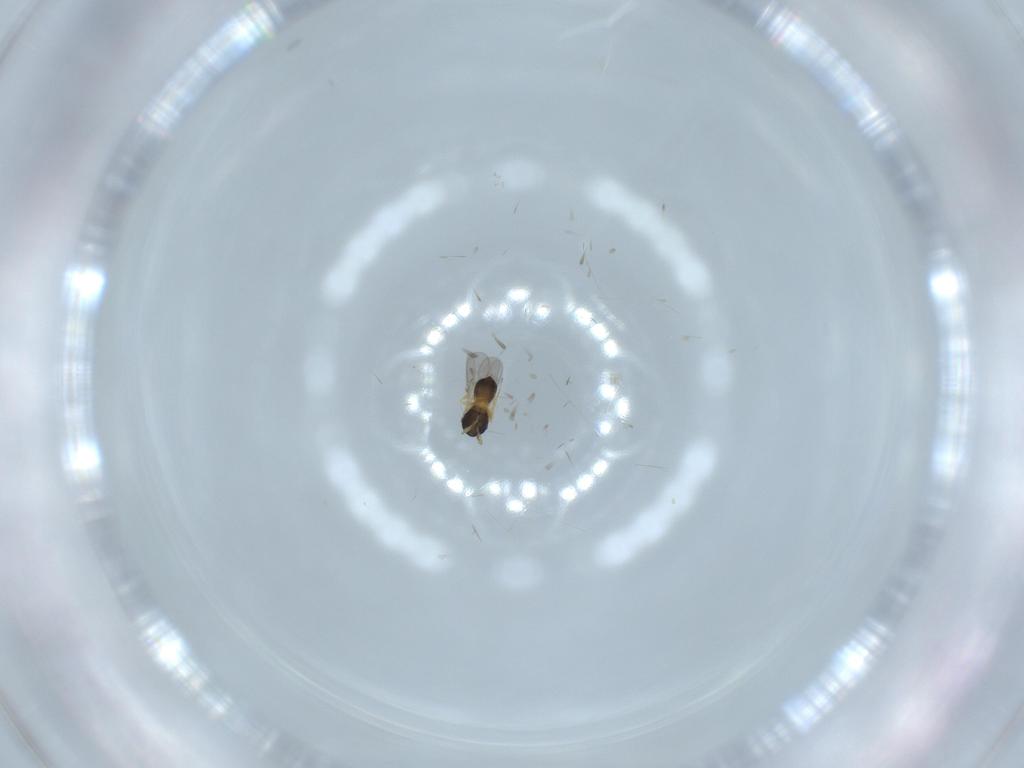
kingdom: Animalia
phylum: Arthropoda
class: Insecta
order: Hymenoptera
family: Scelionidae
